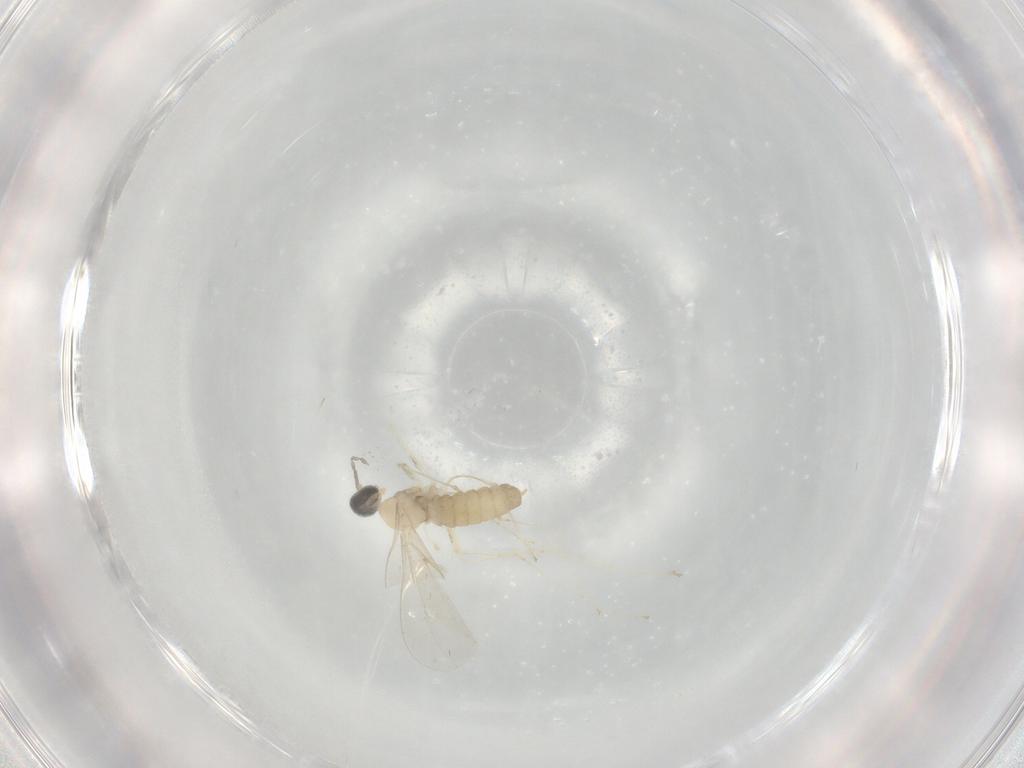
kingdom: Animalia
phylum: Arthropoda
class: Insecta
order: Diptera
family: Cecidomyiidae
